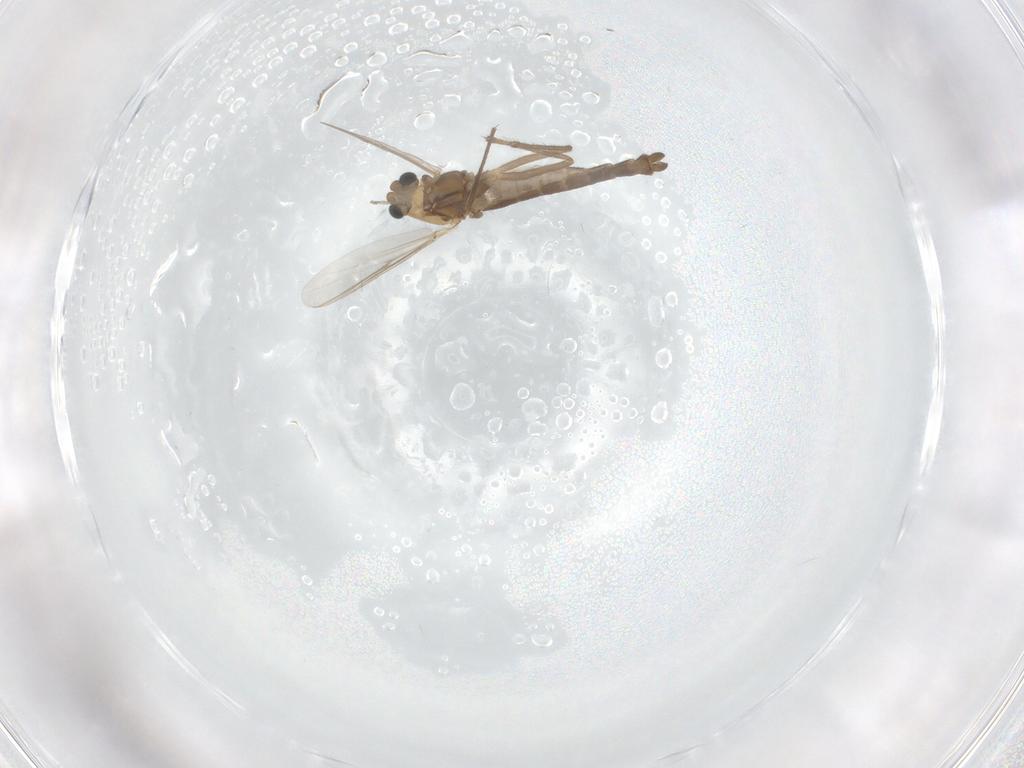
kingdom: Animalia
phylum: Arthropoda
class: Insecta
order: Diptera
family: Chironomidae
